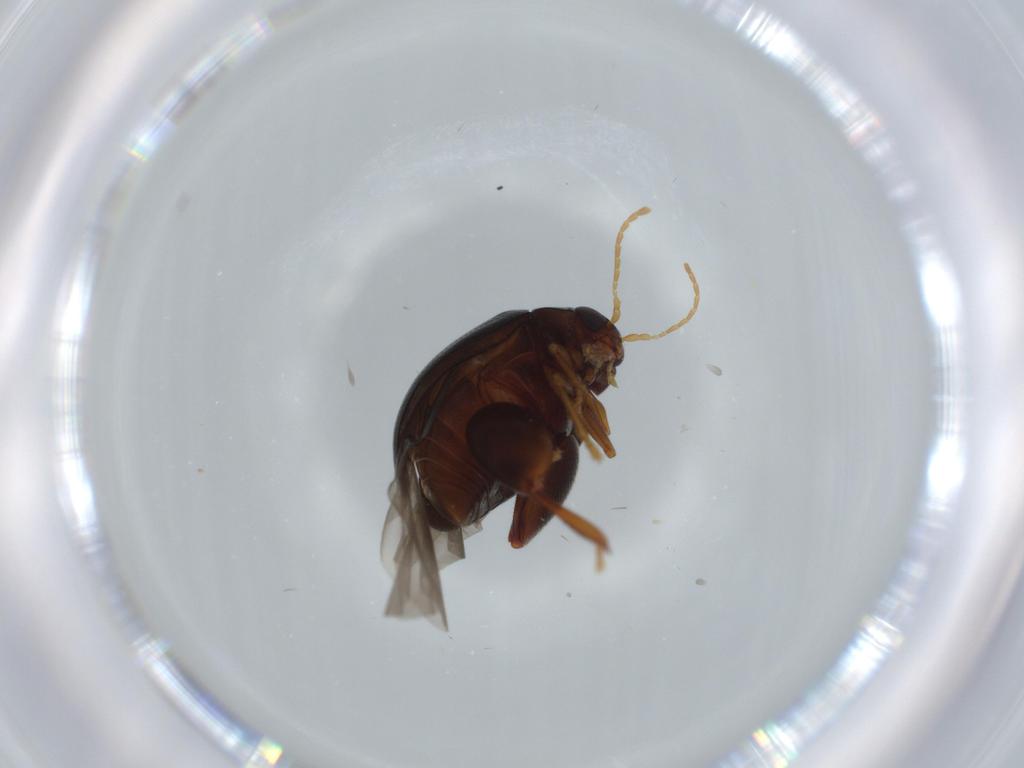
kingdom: Animalia
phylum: Arthropoda
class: Insecta
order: Coleoptera
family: Chrysomelidae
